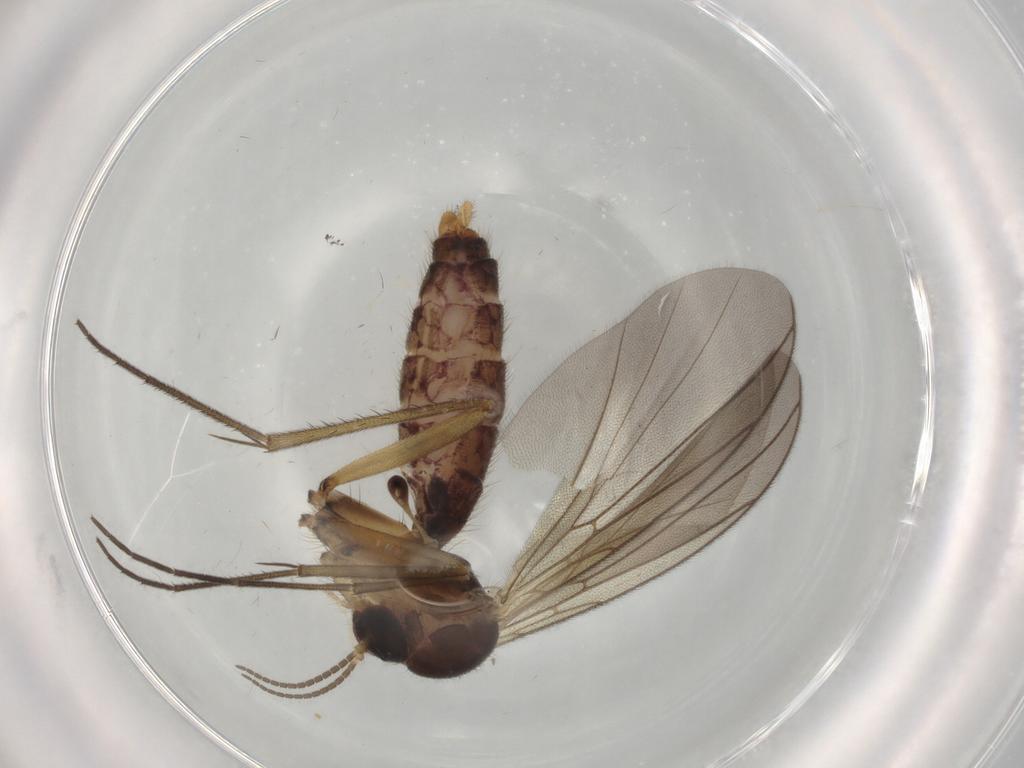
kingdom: Animalia
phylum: Arthropoda
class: Insecta
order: Diptera
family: Mycetophilidae
